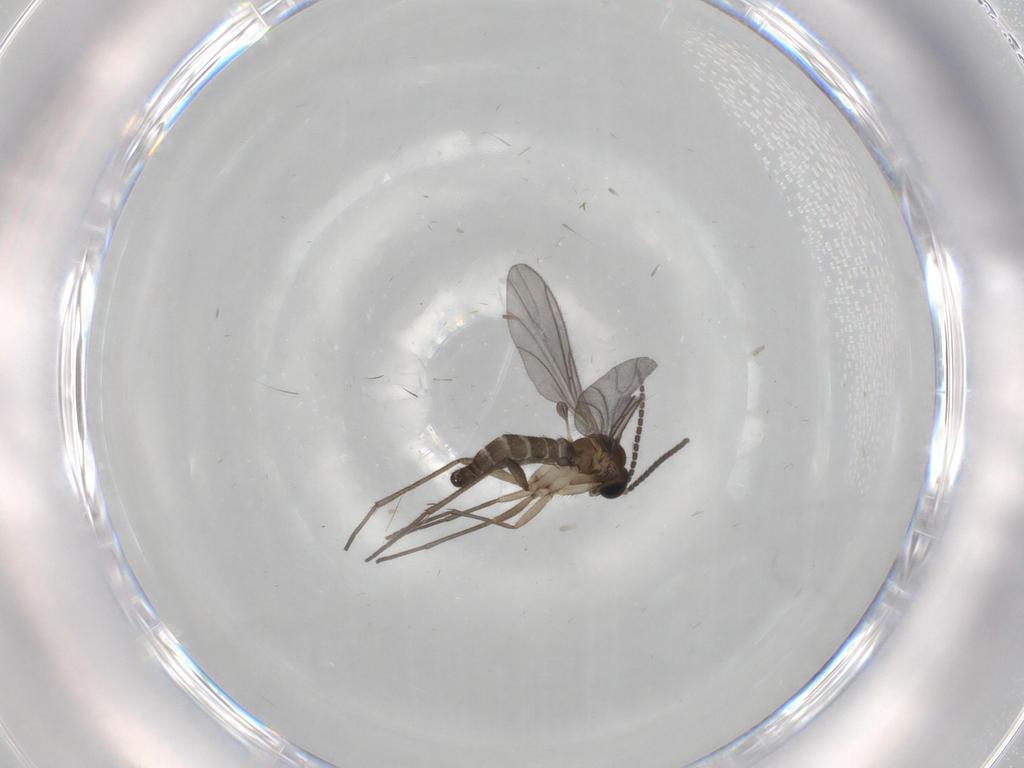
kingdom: Animalia
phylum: Arthropoda
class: Insecta
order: Diptera
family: Sciaridae
